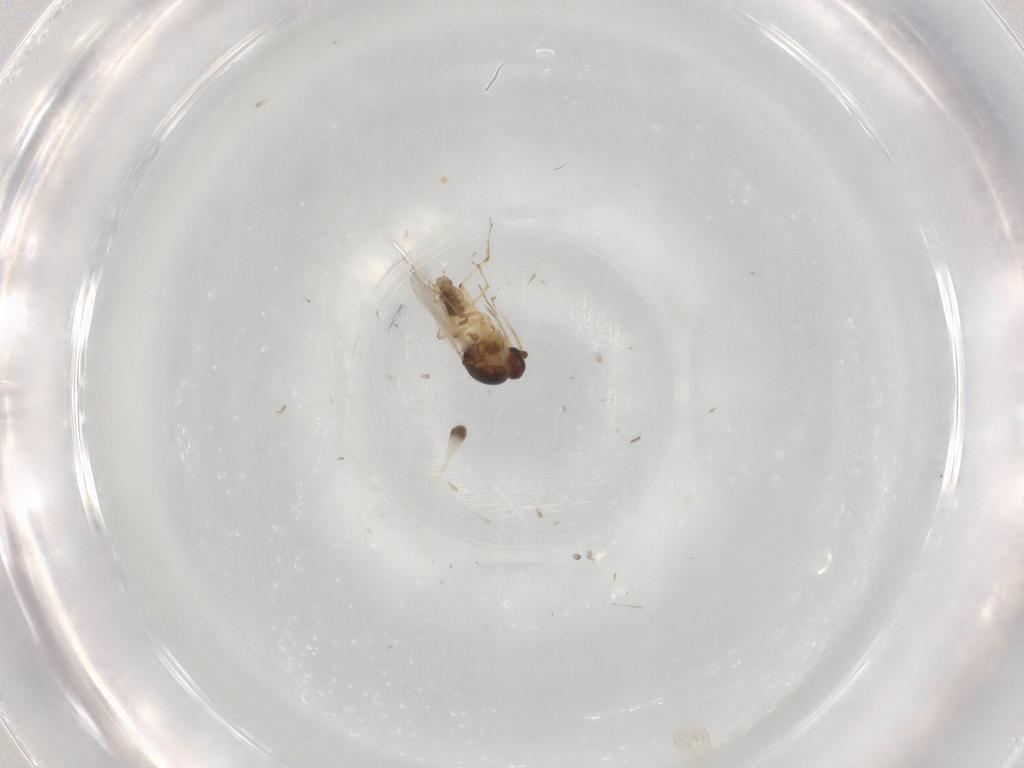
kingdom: Animalia
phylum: Arthropoda
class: Insecta
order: Diptera
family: Ceratopogonidae
